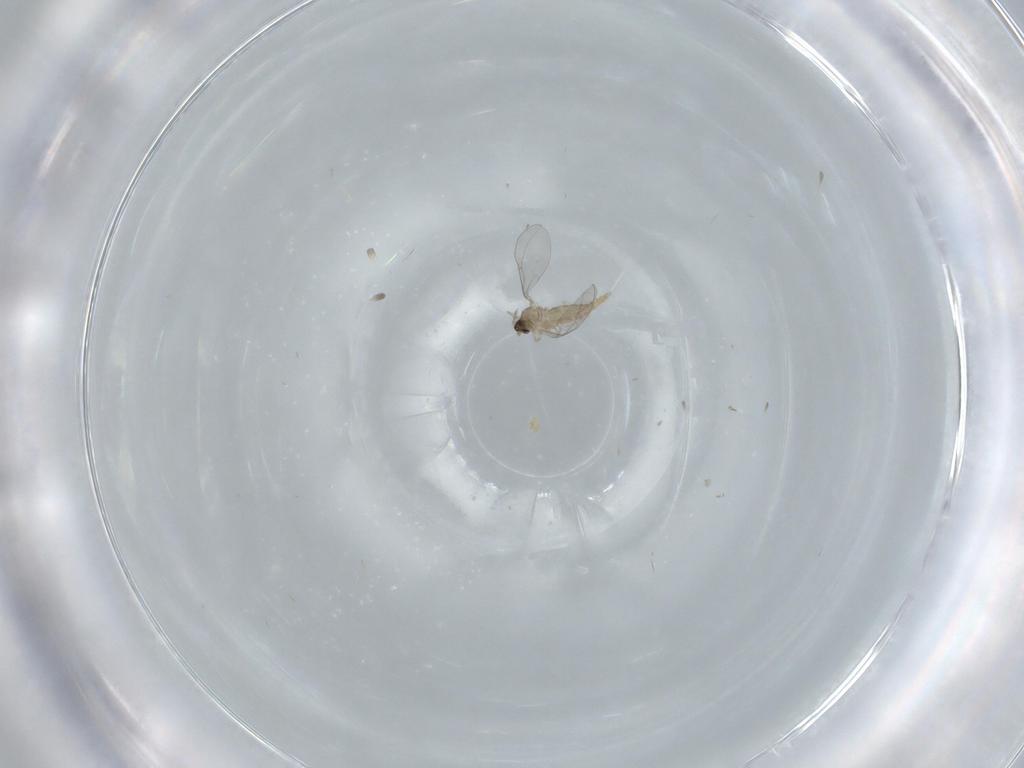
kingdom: Animalia
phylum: Arthropoda
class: Insecta
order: Diptera
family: Cecidomyiidae
